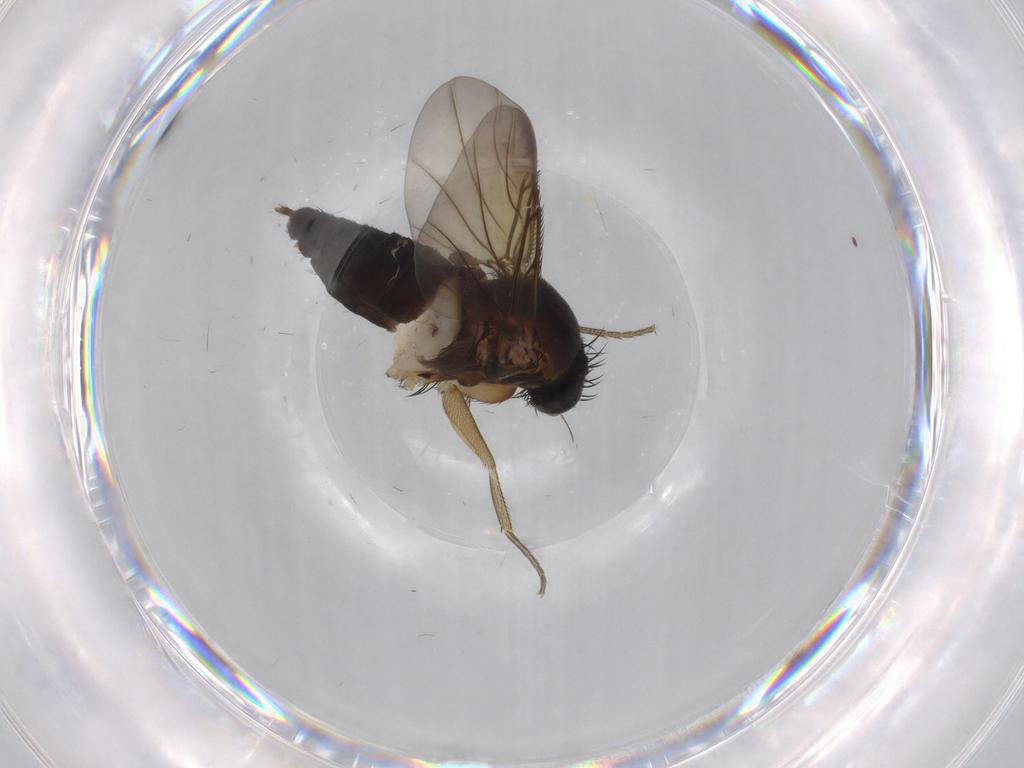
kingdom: Animalia
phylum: Arthropoda
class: Insecta
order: Diptera
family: Phoridae
